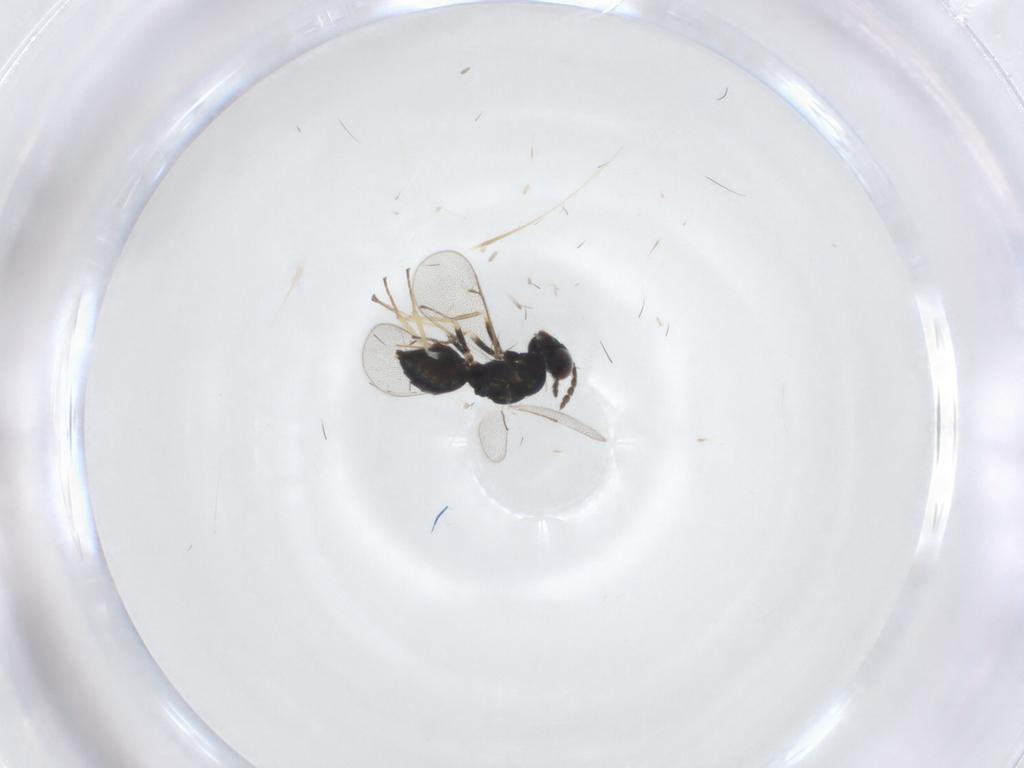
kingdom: Animalia
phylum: Arthropoda
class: Insecta
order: Hymenoptera
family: Eulophidae
